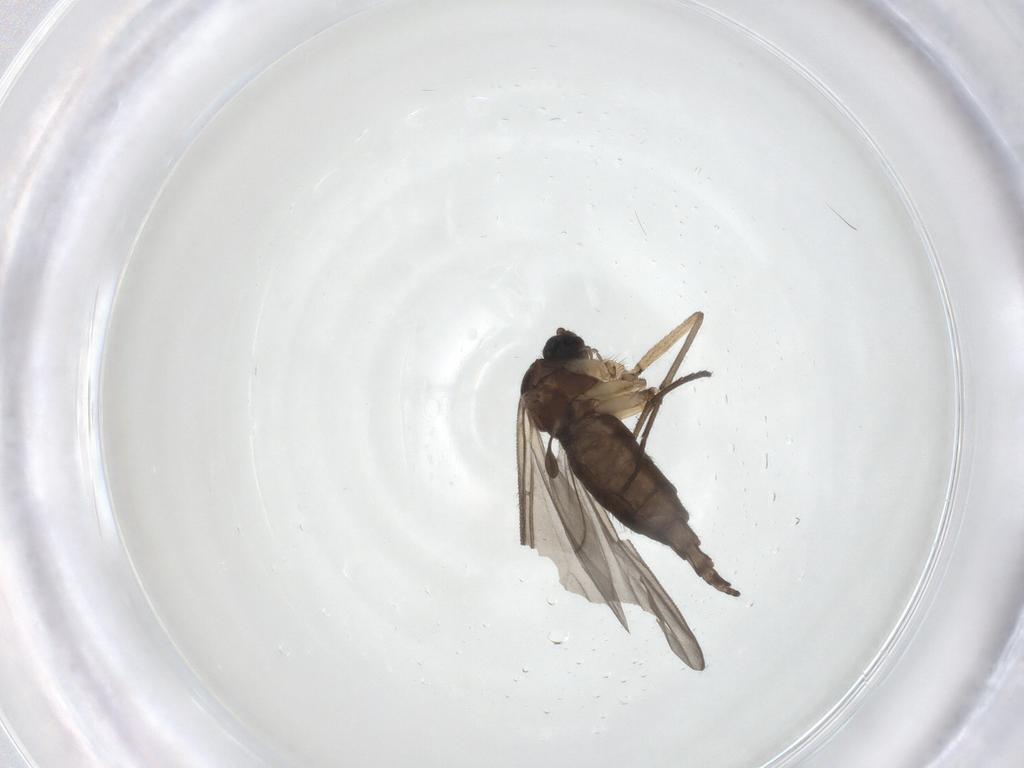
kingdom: Animalia
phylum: Arthropoda
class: Insecta
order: Diptera
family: Sciaridae
